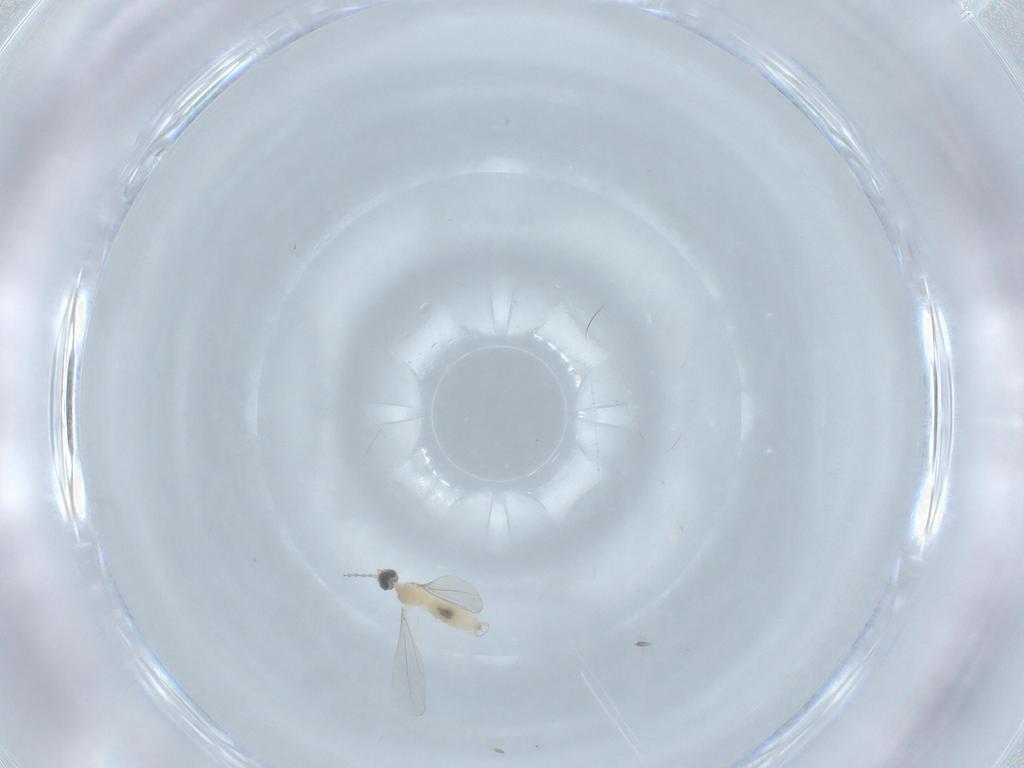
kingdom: Animalia
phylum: Arthropoda
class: Insecta
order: Diptera
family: Cecidomyiidae
